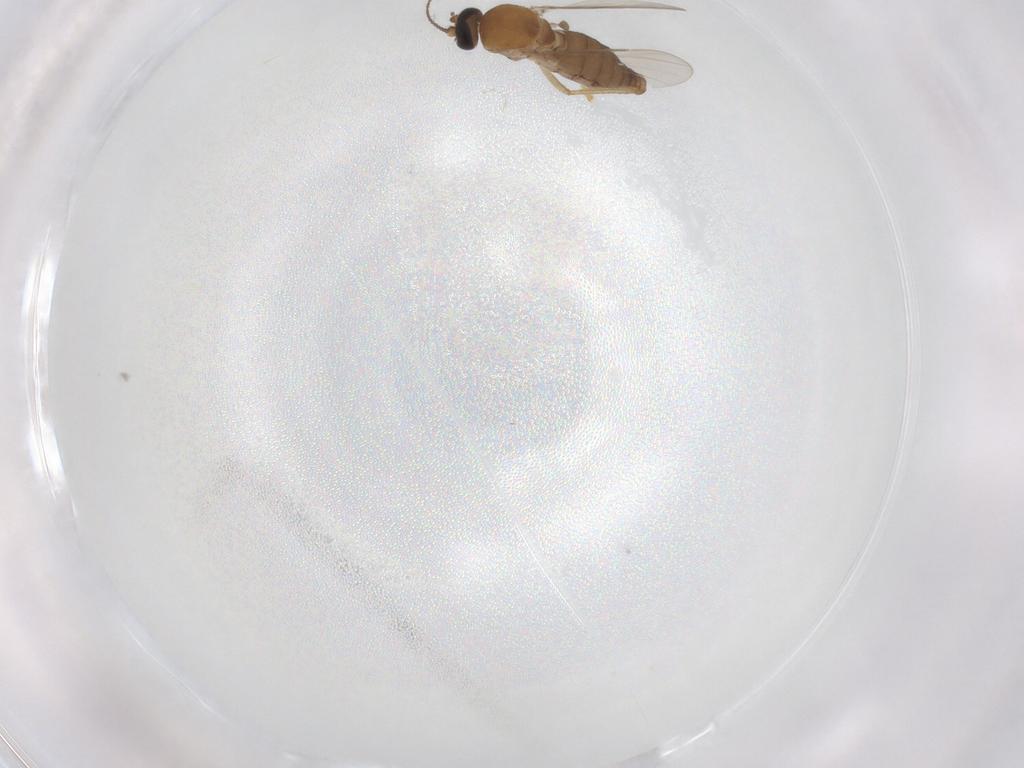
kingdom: Animalia
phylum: Arthropoda
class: Insecta
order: Diptera
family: Ceratopogonidae
